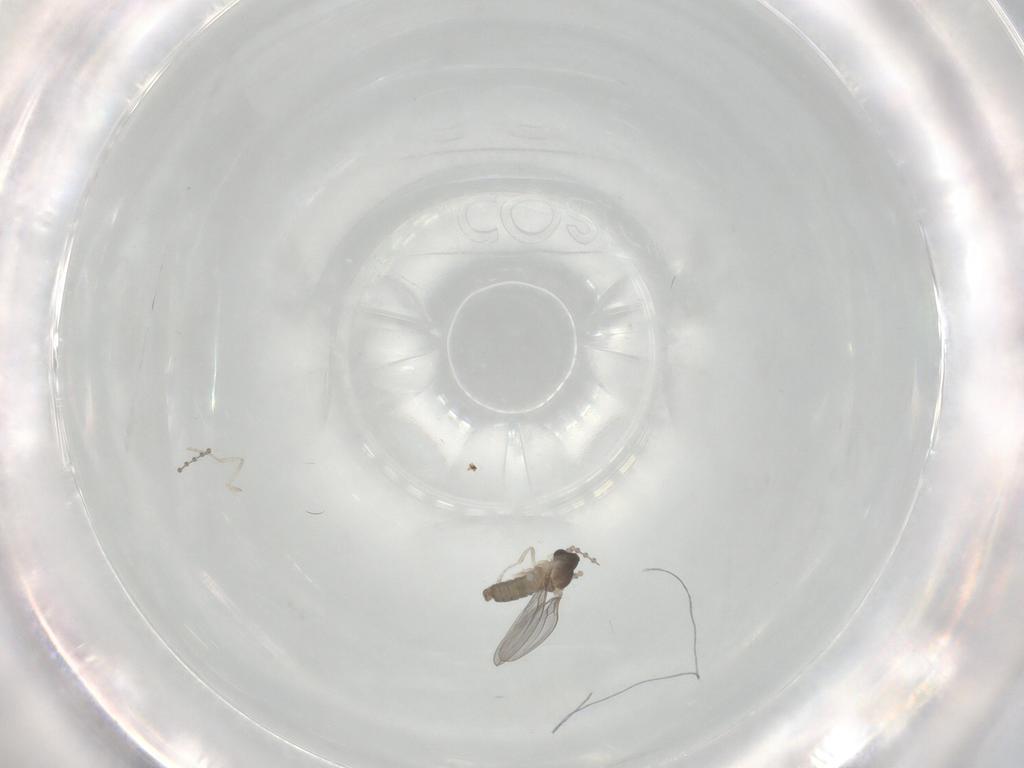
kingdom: Animalia
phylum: Arthropoda
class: Insecta
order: Diptera
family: Cecidomyiidae
